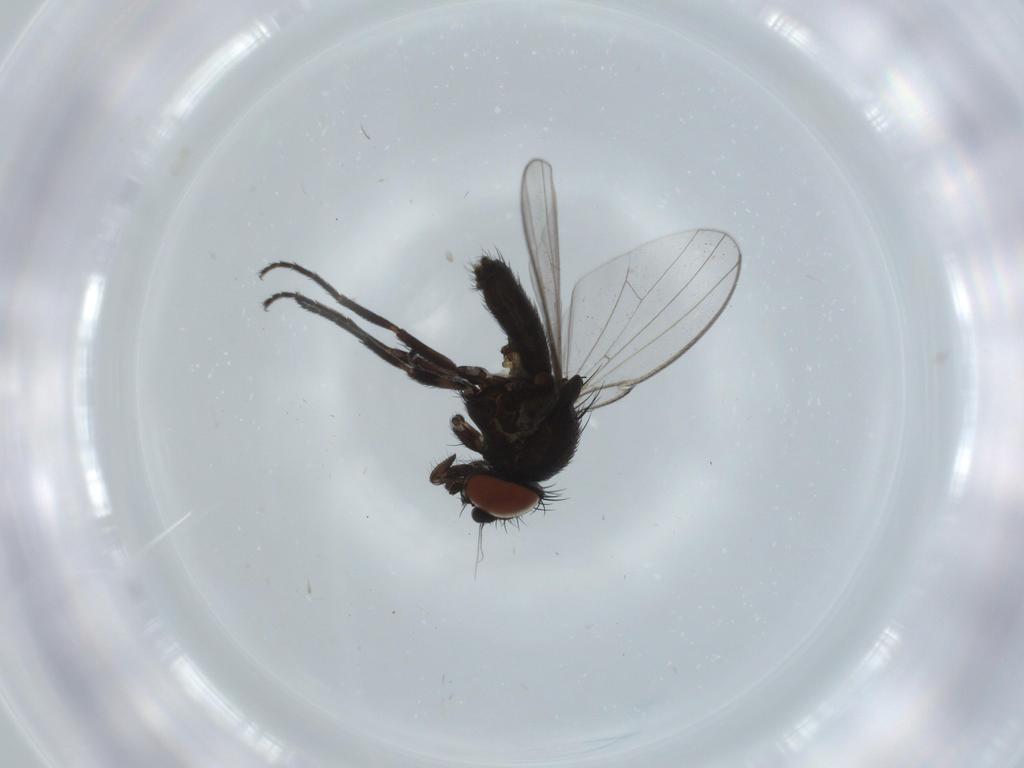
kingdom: Animalia
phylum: Arthropoda
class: Insecta
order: Diptera
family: Milichiidae
